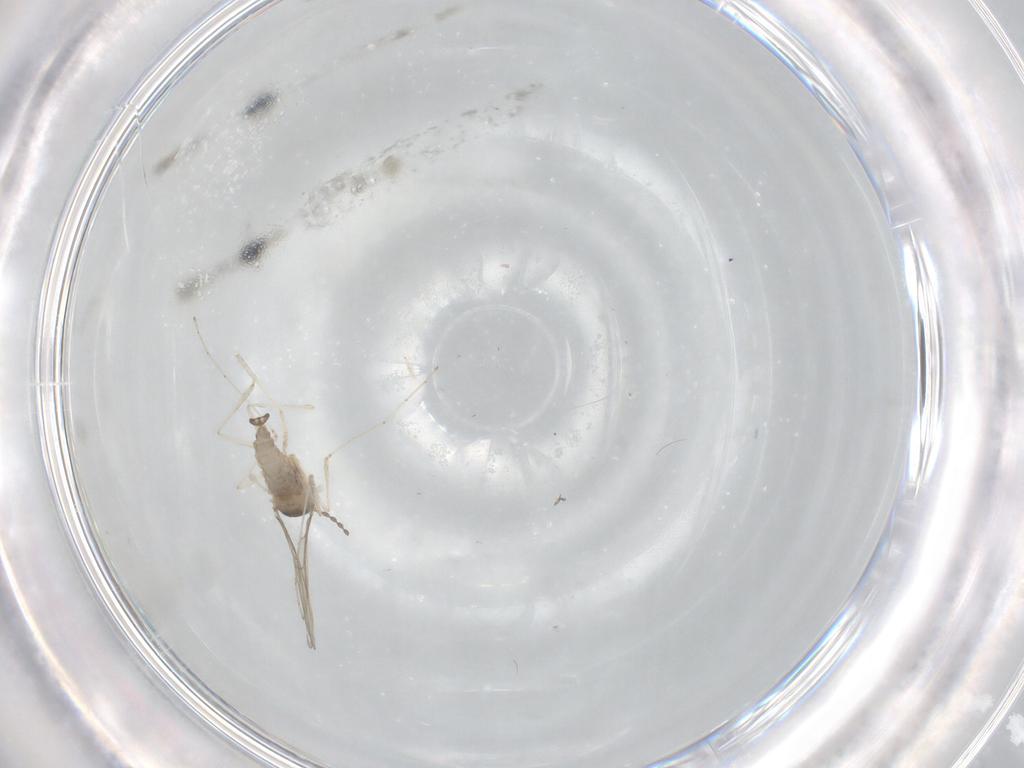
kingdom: Animalia
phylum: Arthropoda
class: Insecta
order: Diptera
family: Cecidomyiidae
